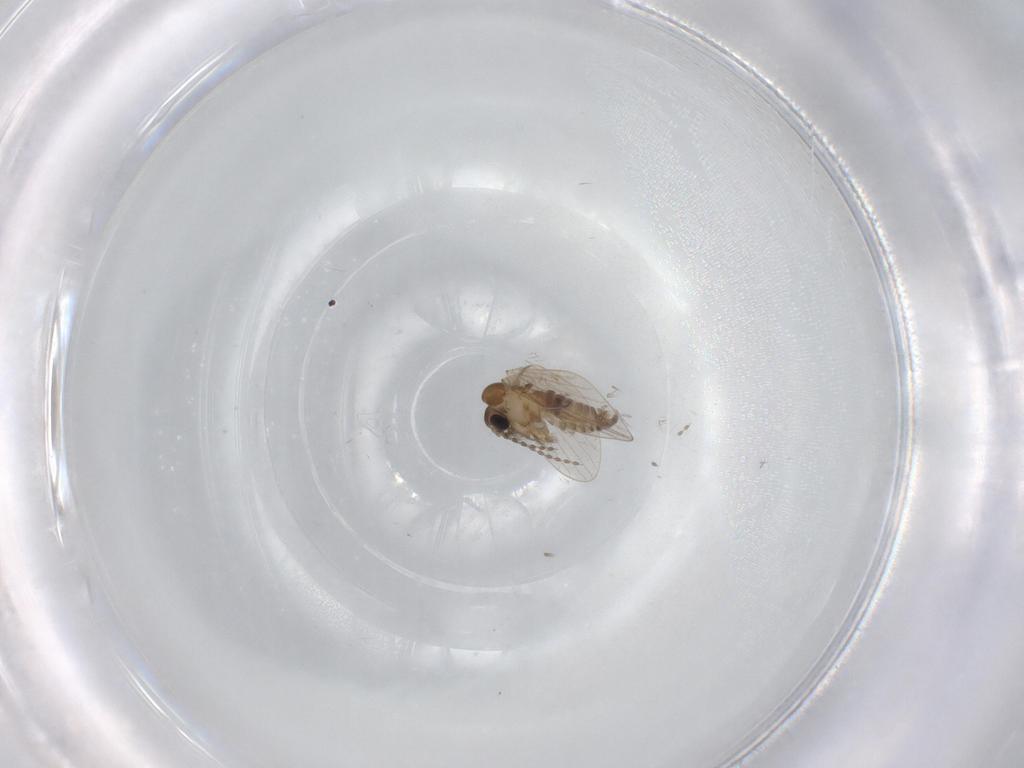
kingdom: Animalia
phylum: Arthropoda
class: Insecta
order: Diptera
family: Psychodidae
